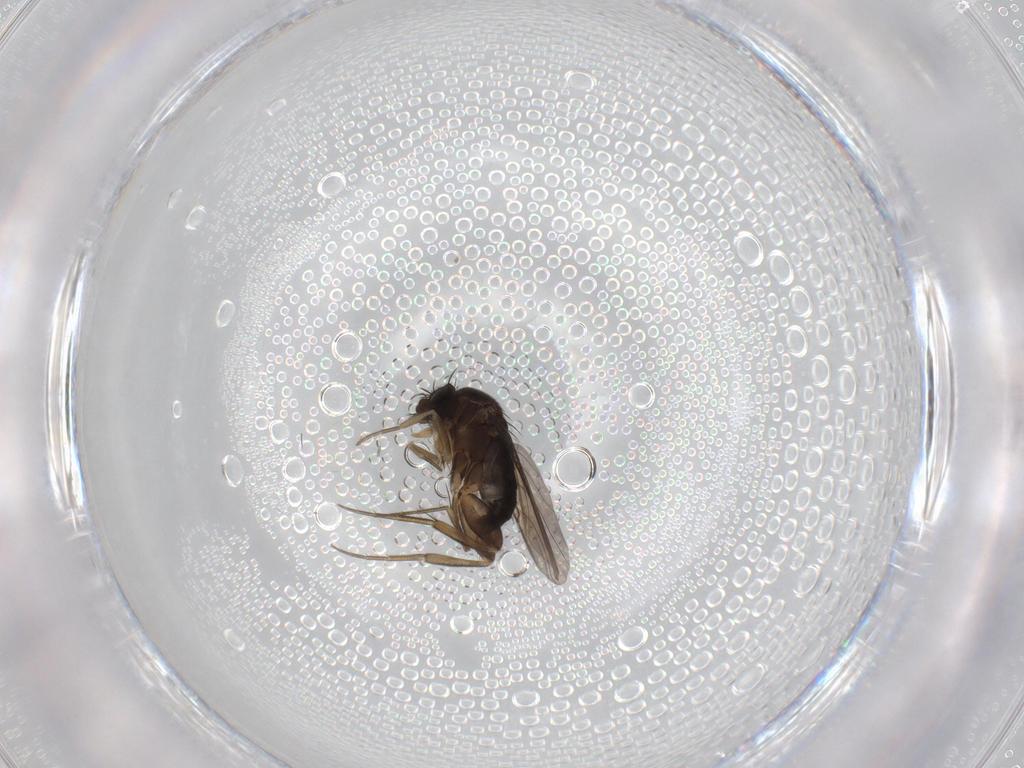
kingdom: Animalia
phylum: Arthropoda
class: Insecta
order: Diptera
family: Phoridae
